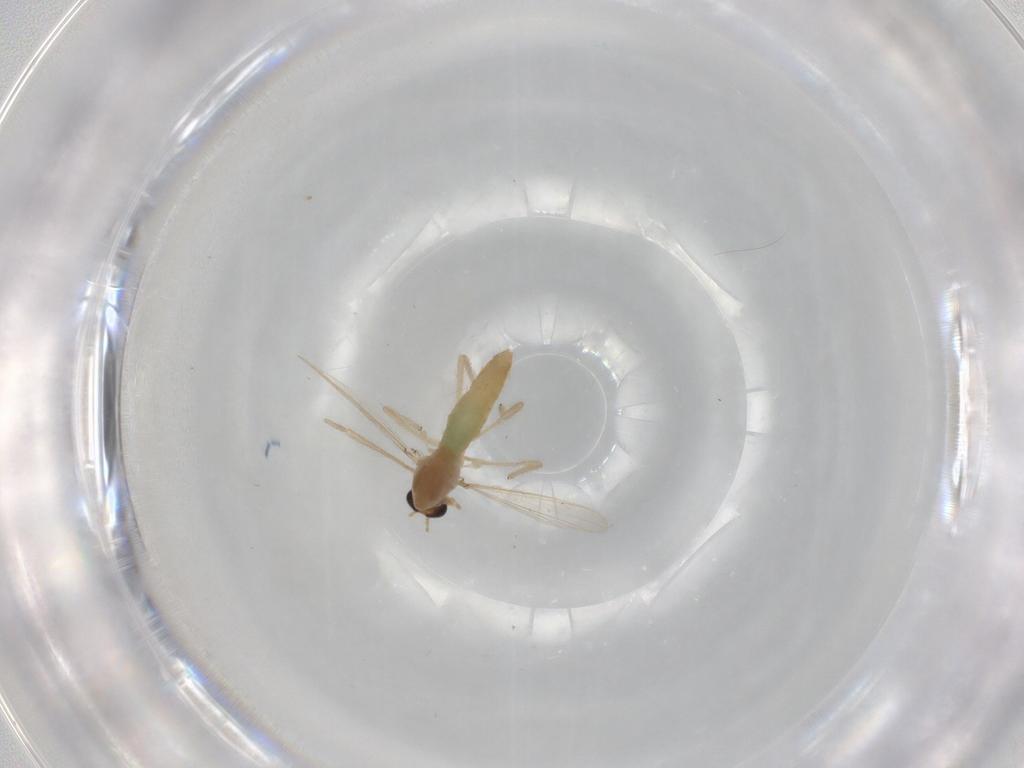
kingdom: Animalia
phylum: Arthropoda
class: Insecta
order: Diptera
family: Chironomidae
